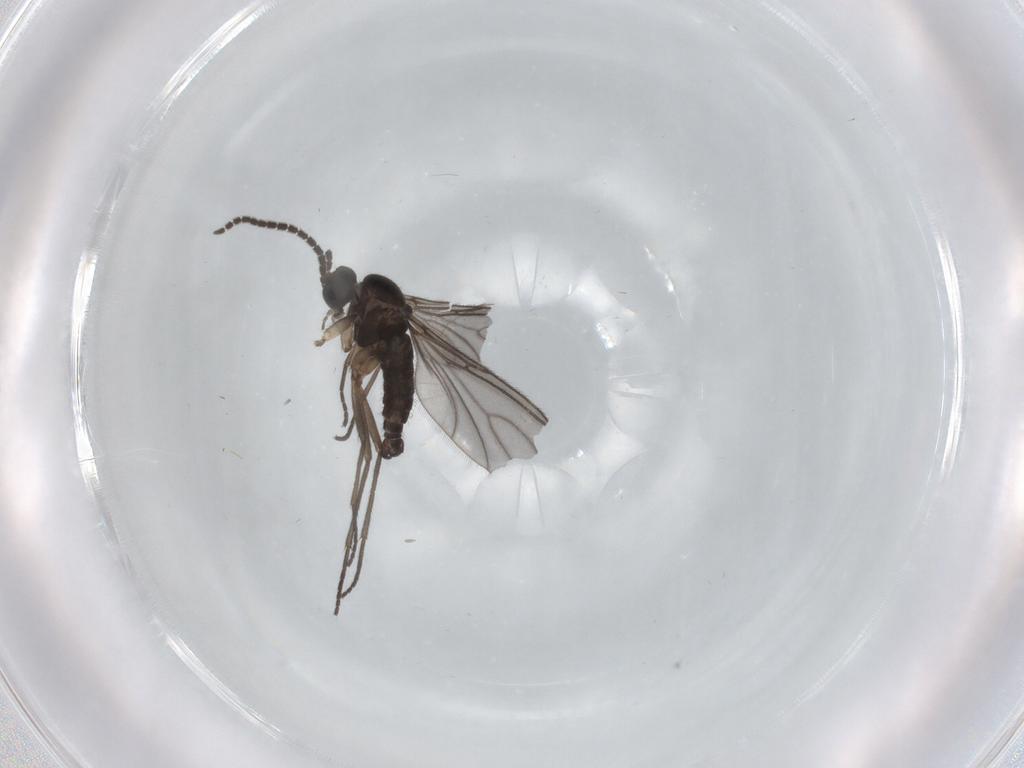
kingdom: Animalia
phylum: Arthropoda
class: Insecta
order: Diptera
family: Sciaridae
